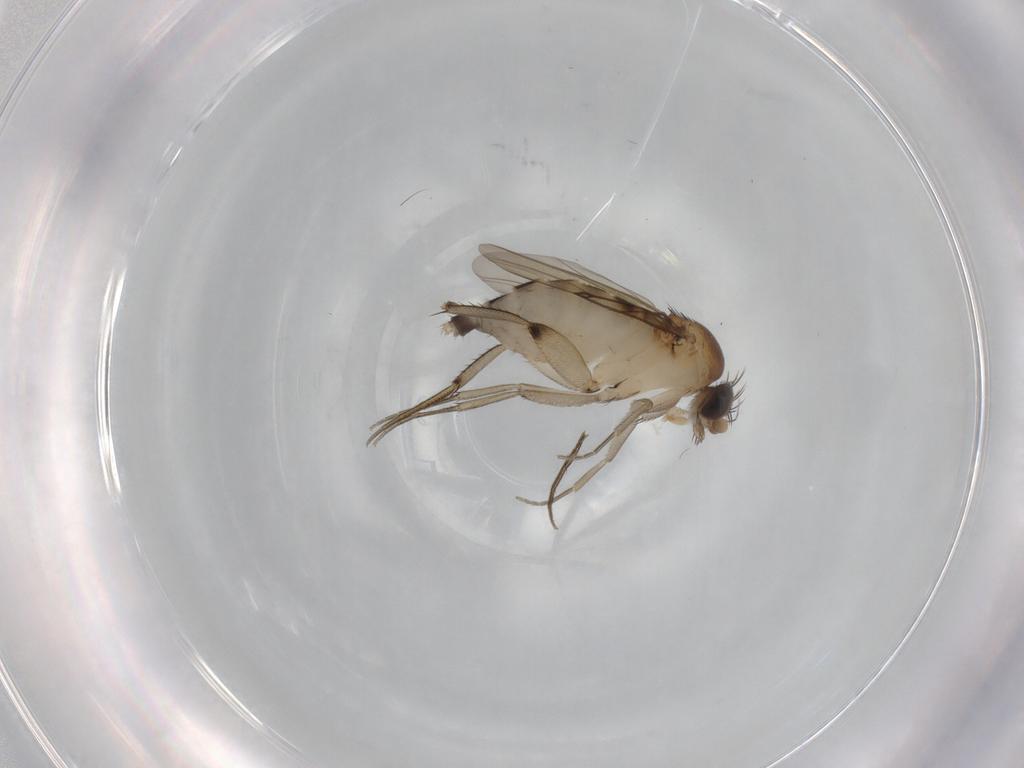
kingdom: Animalia
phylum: Arthropoda
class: Insecta
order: Diptera
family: Phoridae
